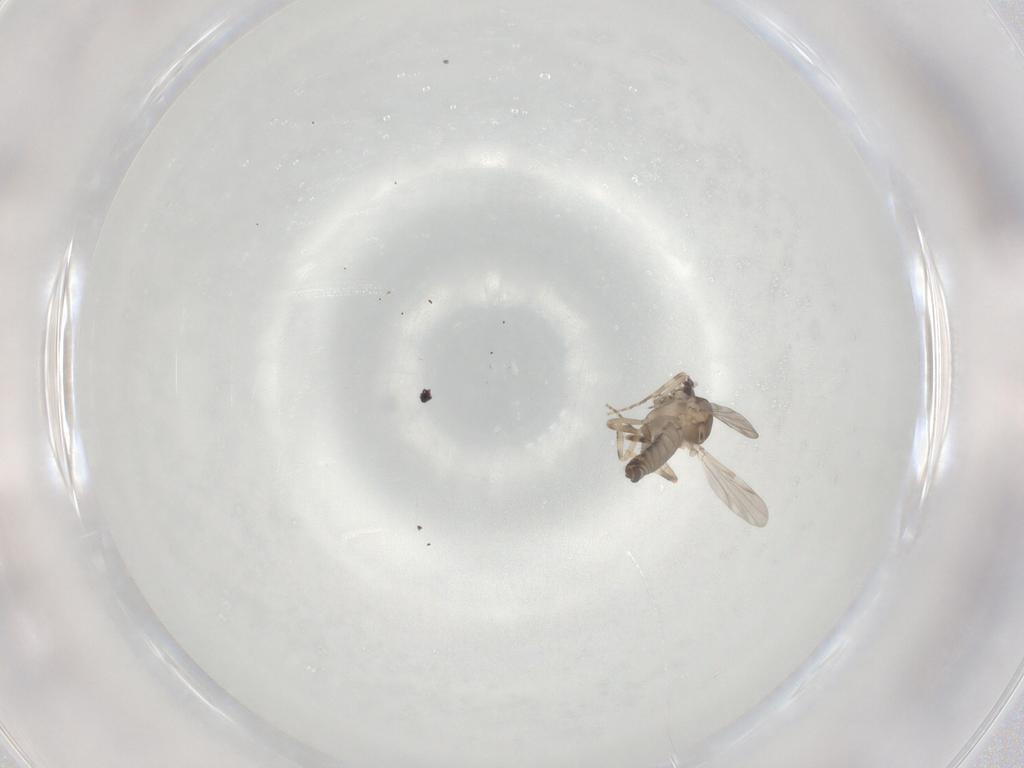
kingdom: Animalia
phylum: Arthropoda
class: Insecta
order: Diptera
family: Ceratopogonidae
